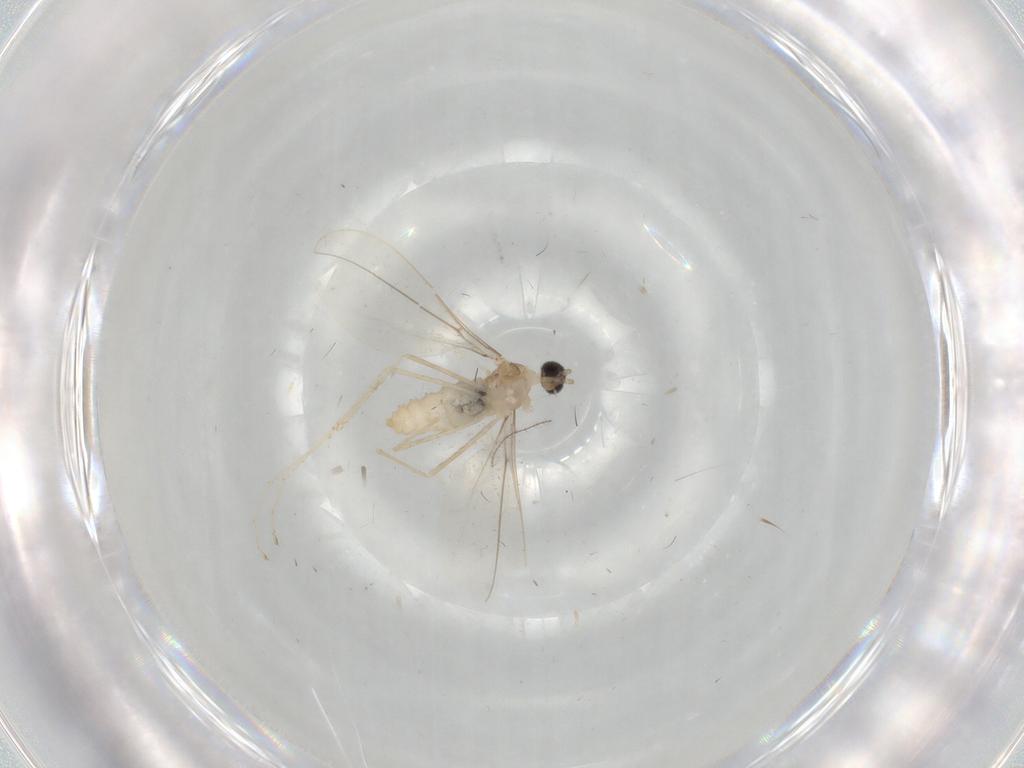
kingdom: Animalia
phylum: Arthropoda
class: Insecta
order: Diptera
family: Cecidomyiidae
